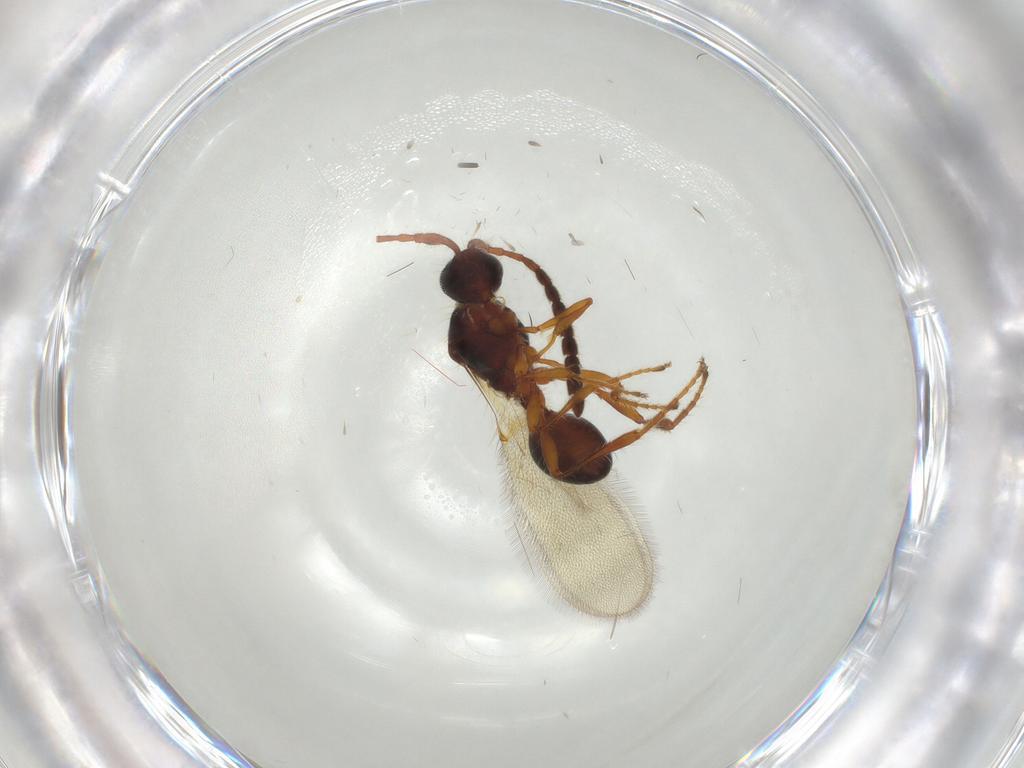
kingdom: Animalia
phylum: Arthropoda
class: Insecta
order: Hymenoptera
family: Diapriidae
